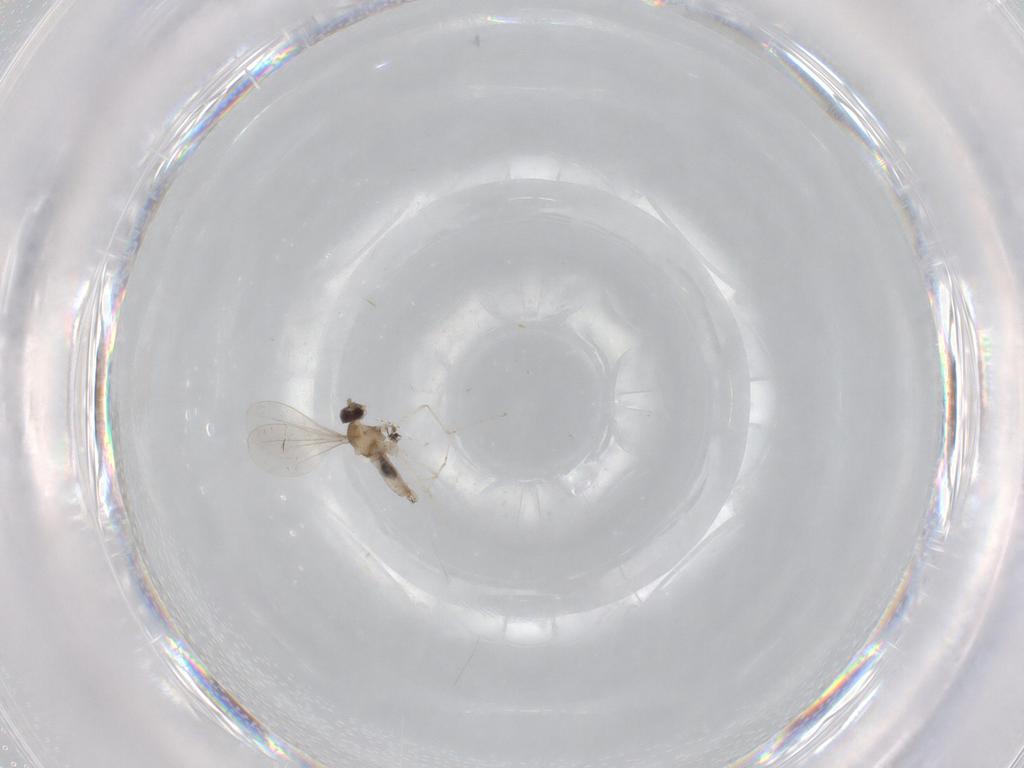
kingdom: Animalia
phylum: Arthropoda
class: Insecta
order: Diptera
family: Cecidomyiidae
